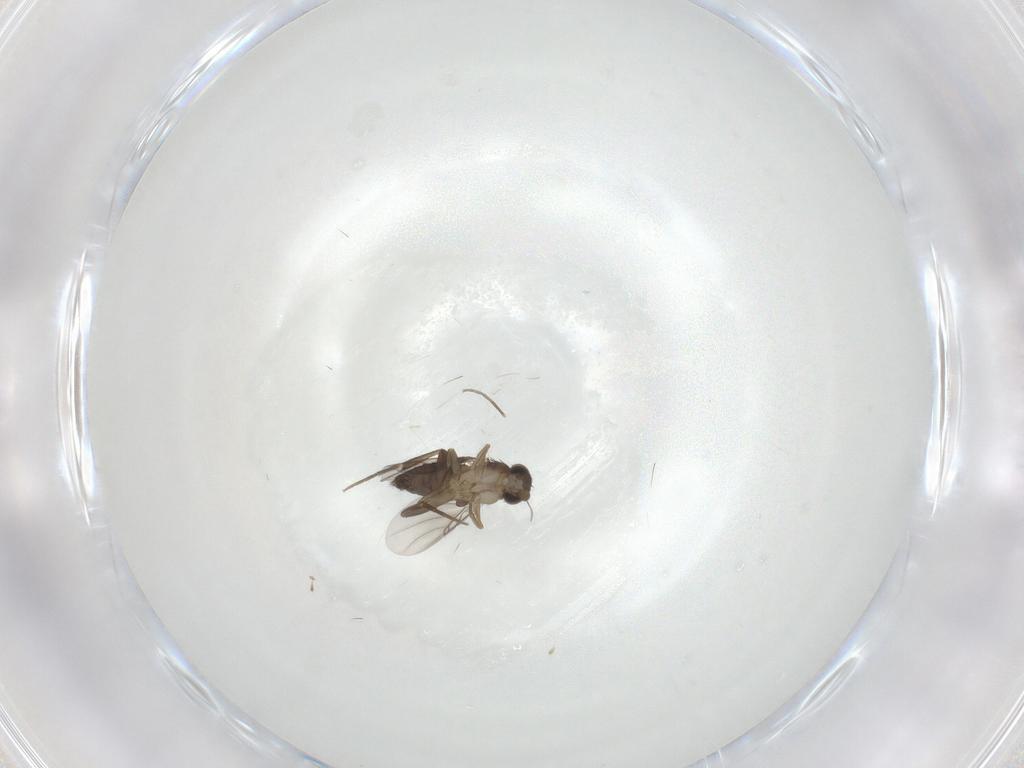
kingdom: Animalia
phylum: Arthropoda
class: Insecta
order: Diptera
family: Phoridae
